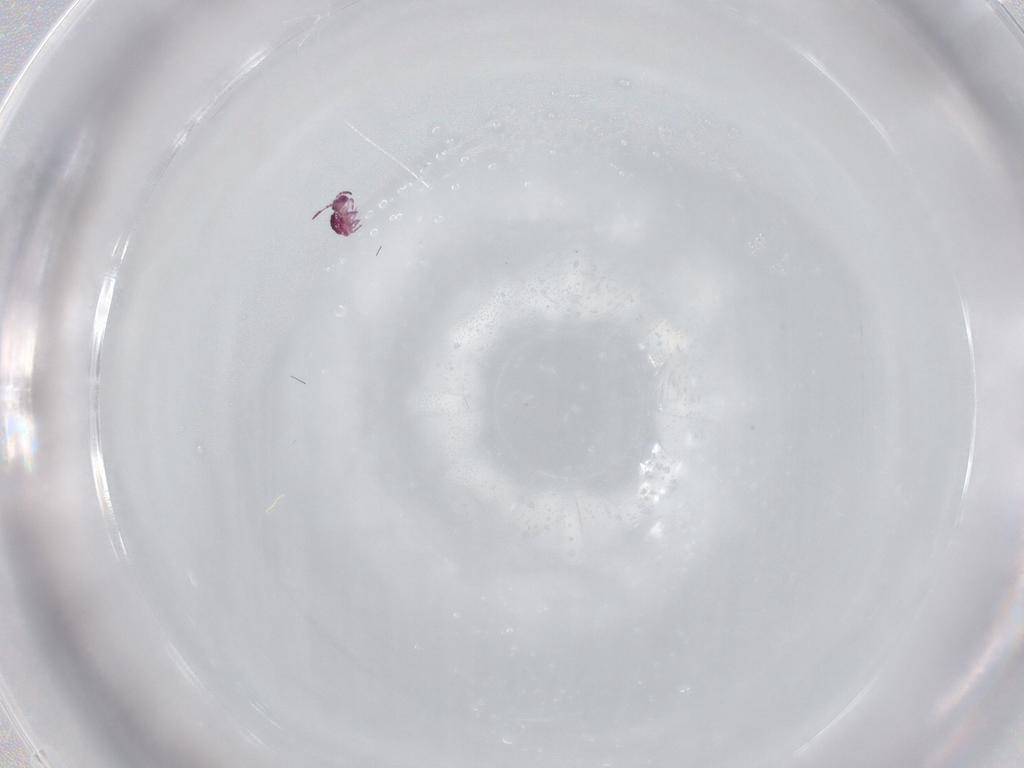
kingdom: Animalia
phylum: Arthropoda
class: Collembola
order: Symphypleona
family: Sminthurididae
